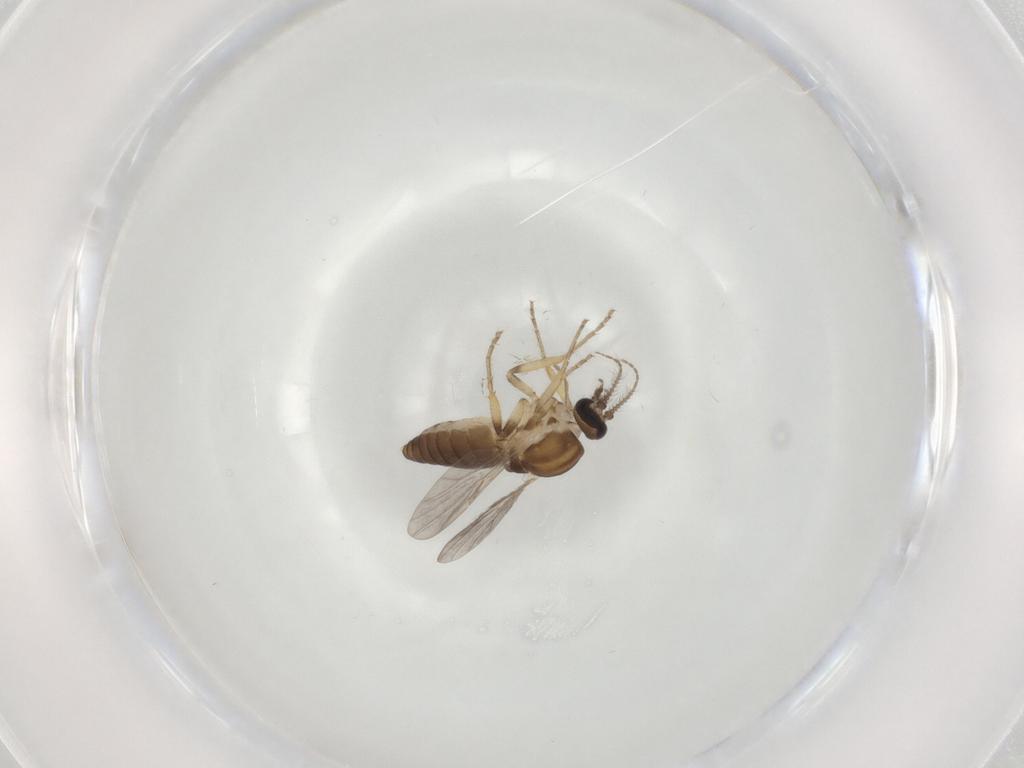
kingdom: Animalia
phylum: Arthropoda
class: Insecta
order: Diptera
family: Ceratopogonidae
